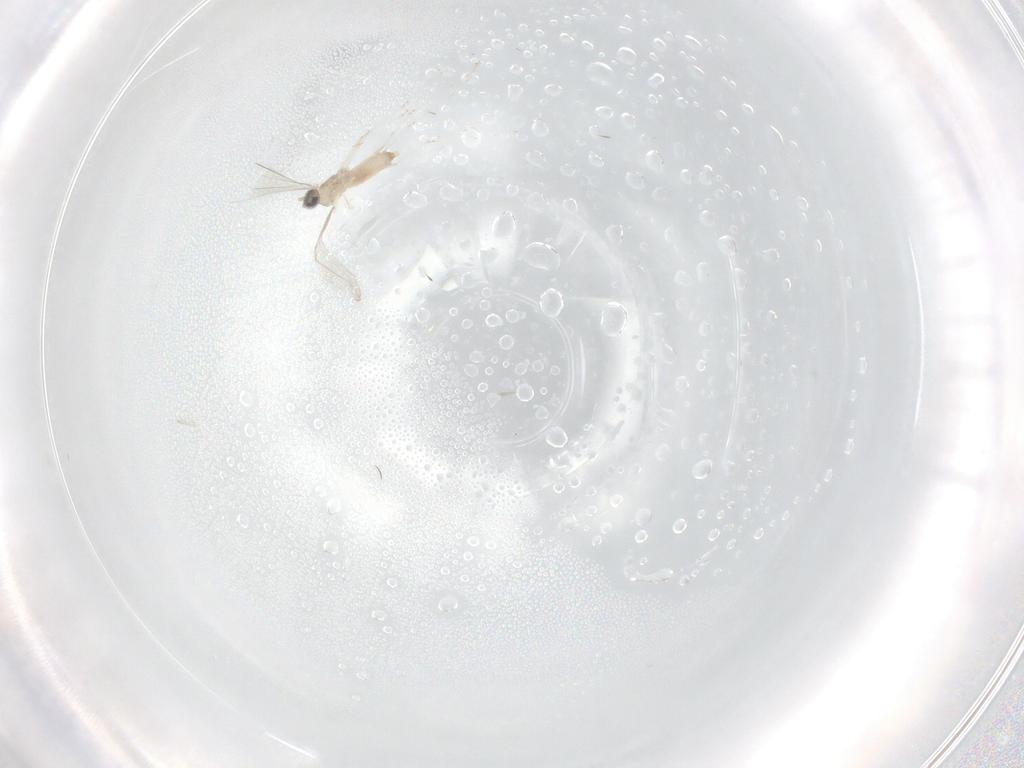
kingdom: Animalia
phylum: Arthropoda
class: Insecta
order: Diptera
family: Cecidomyiidae
